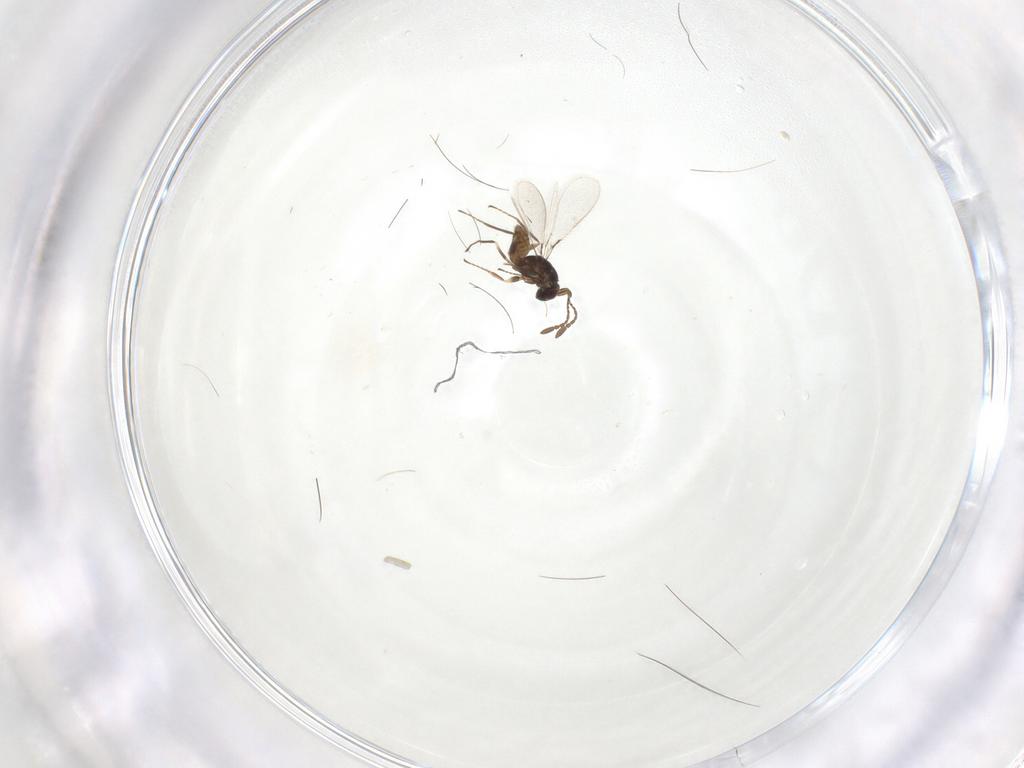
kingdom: Animalia
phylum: Arthropoda
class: Insecta
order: Hymenoptera
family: Mymaridae
